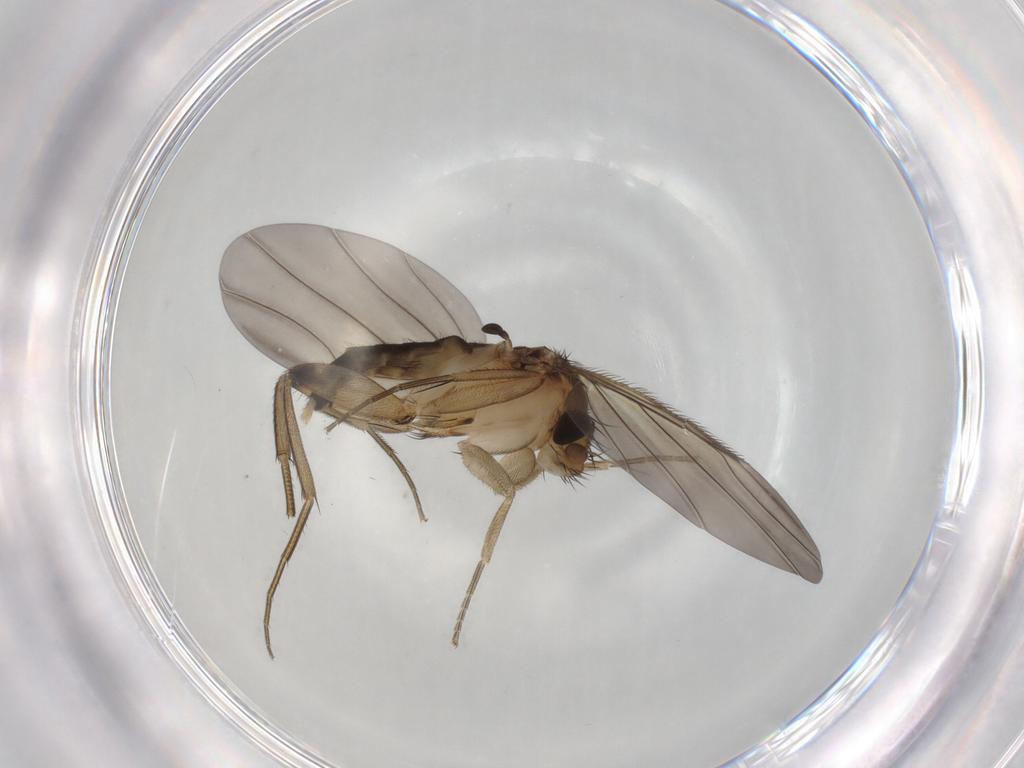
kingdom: Animalia
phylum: Arthropoda
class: Insecta
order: Diptera
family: Phoridae
